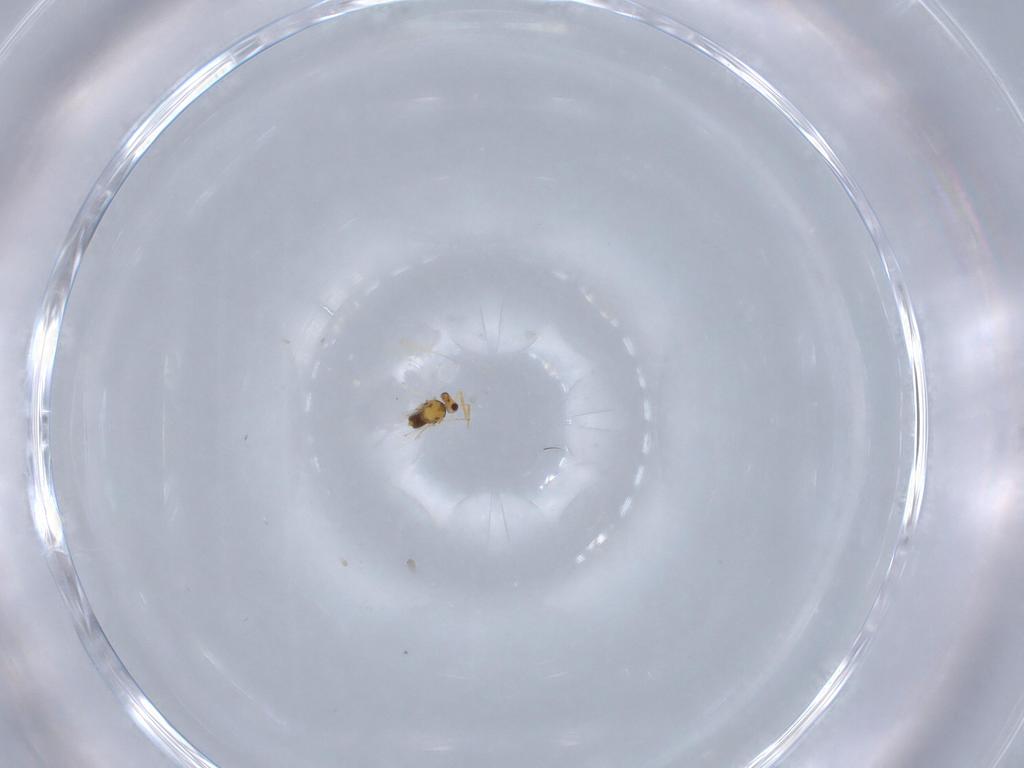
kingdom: Animalia
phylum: Arthropoda
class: Insecta
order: Hymenoptera
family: Aphelinidae
